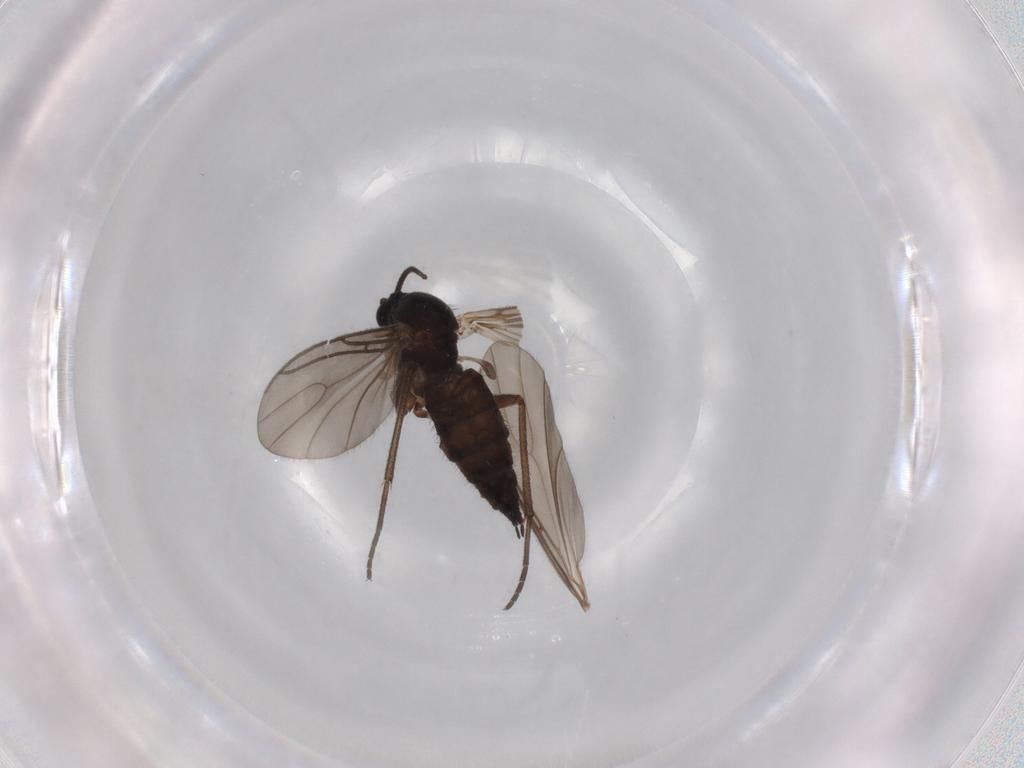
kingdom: Animalia
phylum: Arthropoda
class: Insecta
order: Diptera
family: Sciaridae
